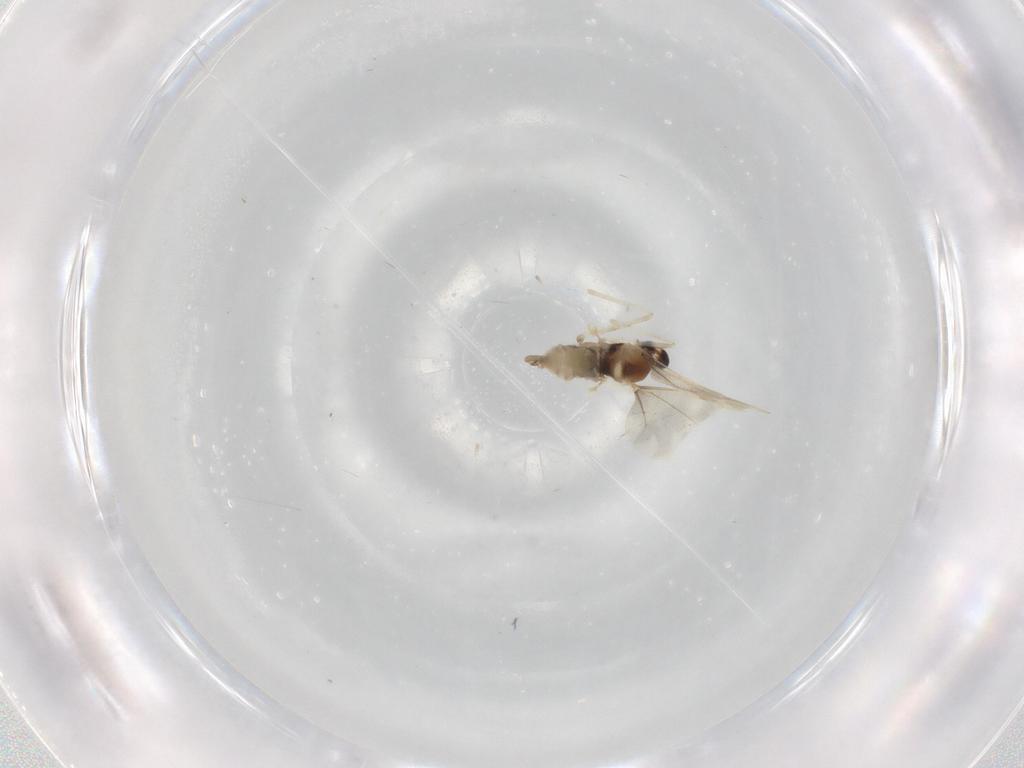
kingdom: Animalia
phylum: Arthropoda
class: Insecta
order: Diptera
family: Cecidomyiidae
